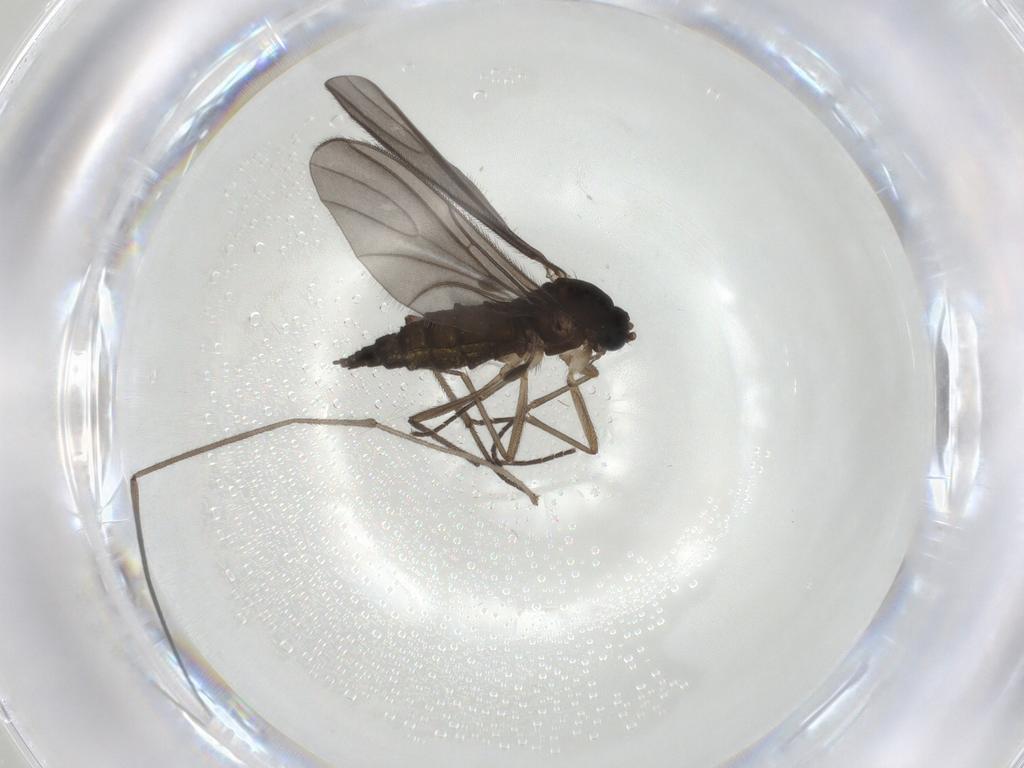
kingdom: Animalia
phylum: Arthropoda
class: Insecta
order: Diptera
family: Sciaridae
